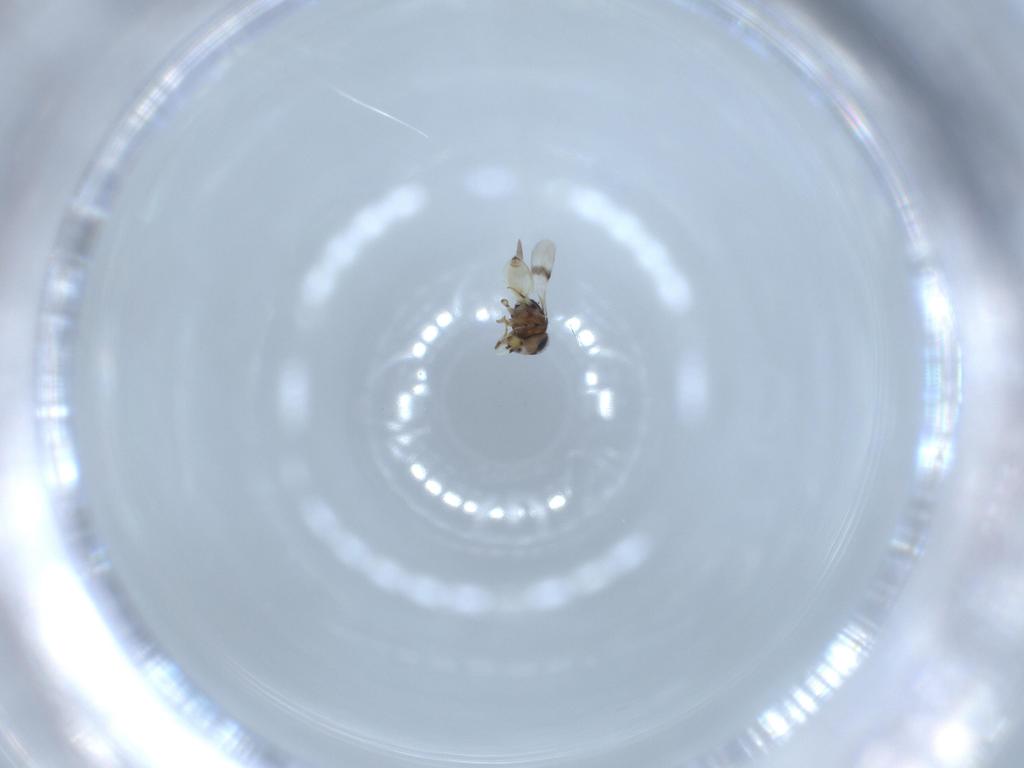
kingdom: Animalia
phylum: Arthropoda
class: Insecta
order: Hymenoptera
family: Scelionidae
